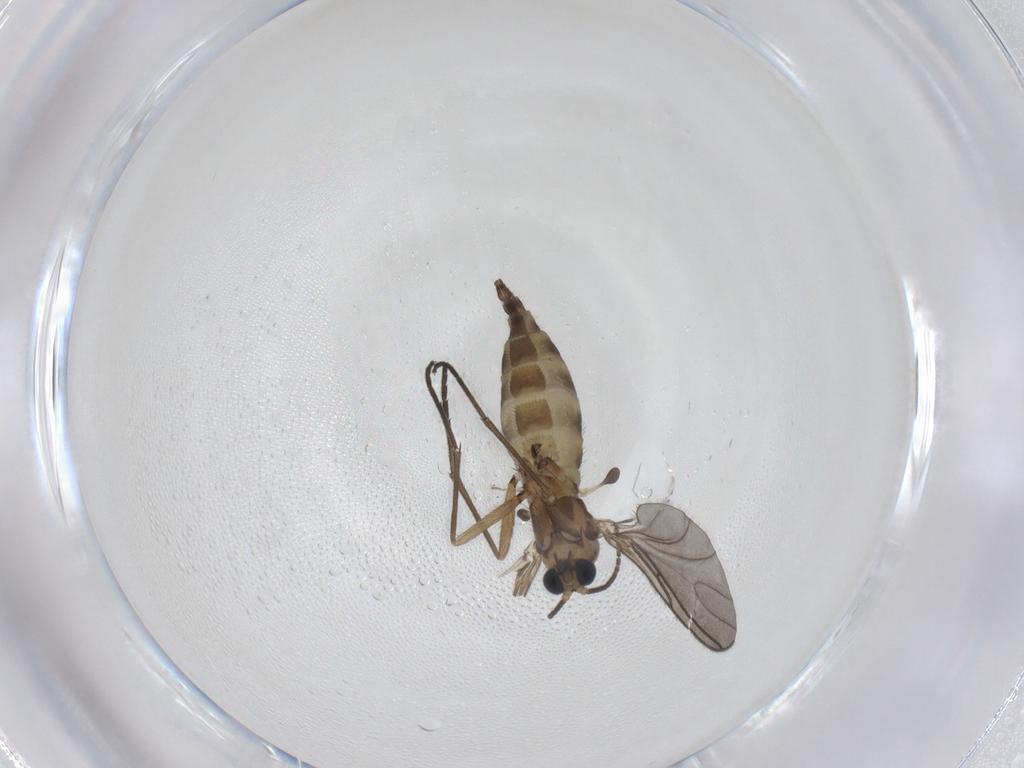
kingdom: Animalia
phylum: Arthropoda
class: Insecta
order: Diptera
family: Sciaridae
